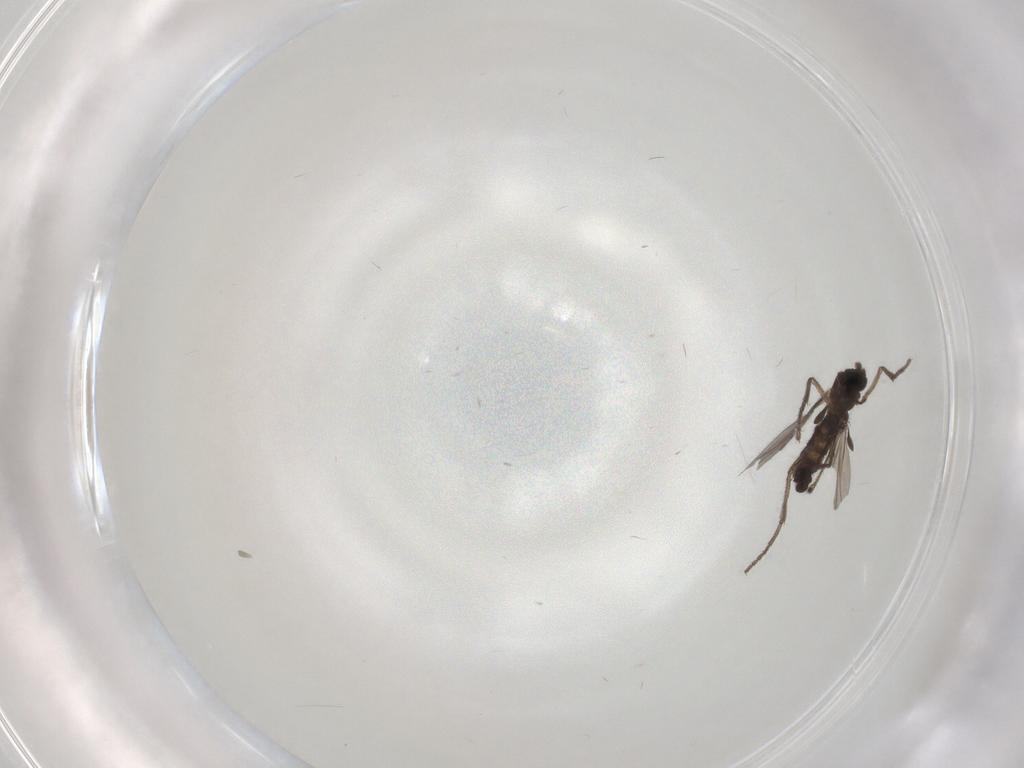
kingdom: Animalia
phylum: Arthropoda
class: Insecta
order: Diptera
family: Sciaridae
